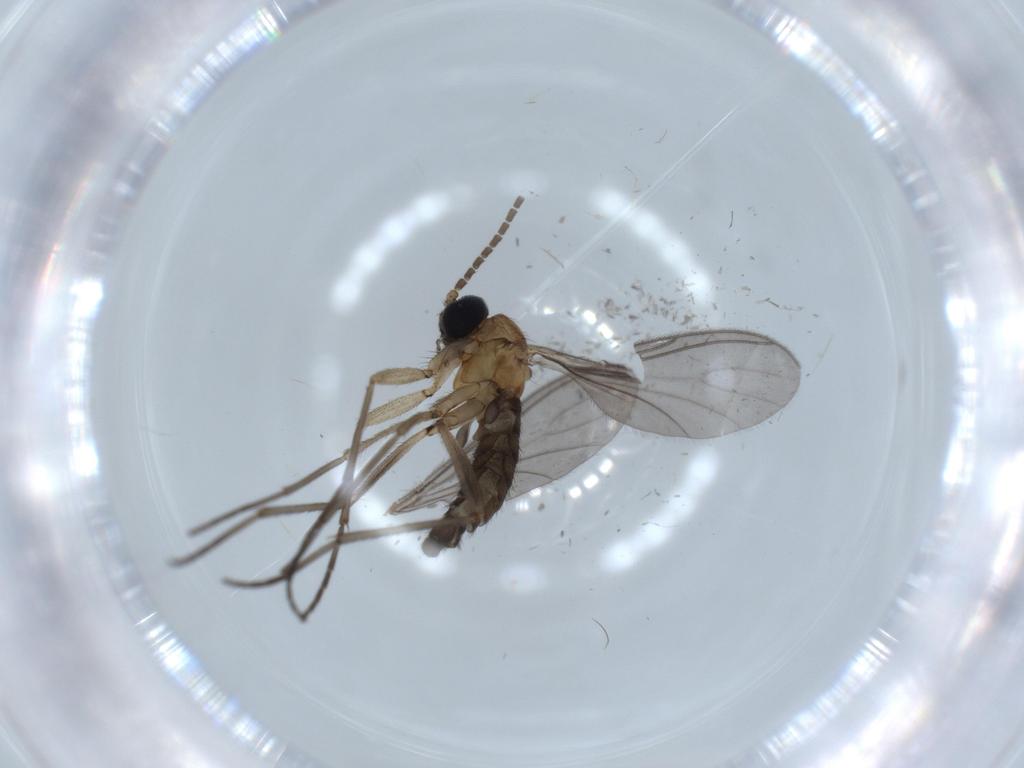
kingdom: Animalia
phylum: Arthropoda
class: Insecta
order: Diptera
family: Sciaridae
